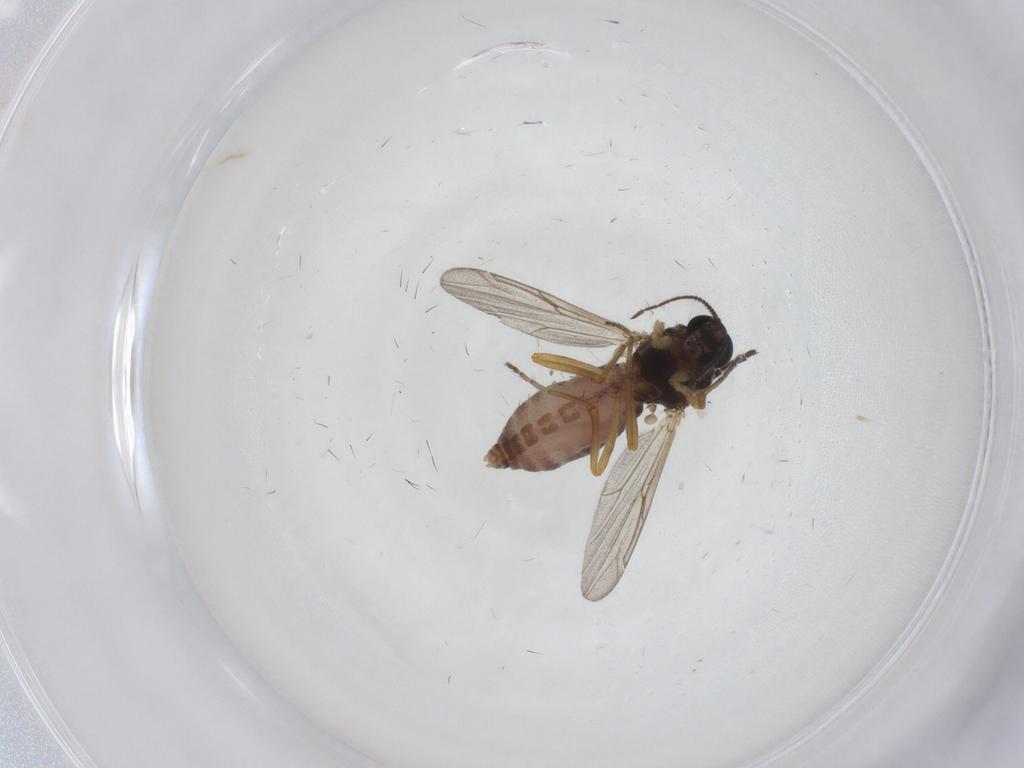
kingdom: Animalia
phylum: Arthropoda
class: Insecta
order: Diptera
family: Ceratopogonidae
